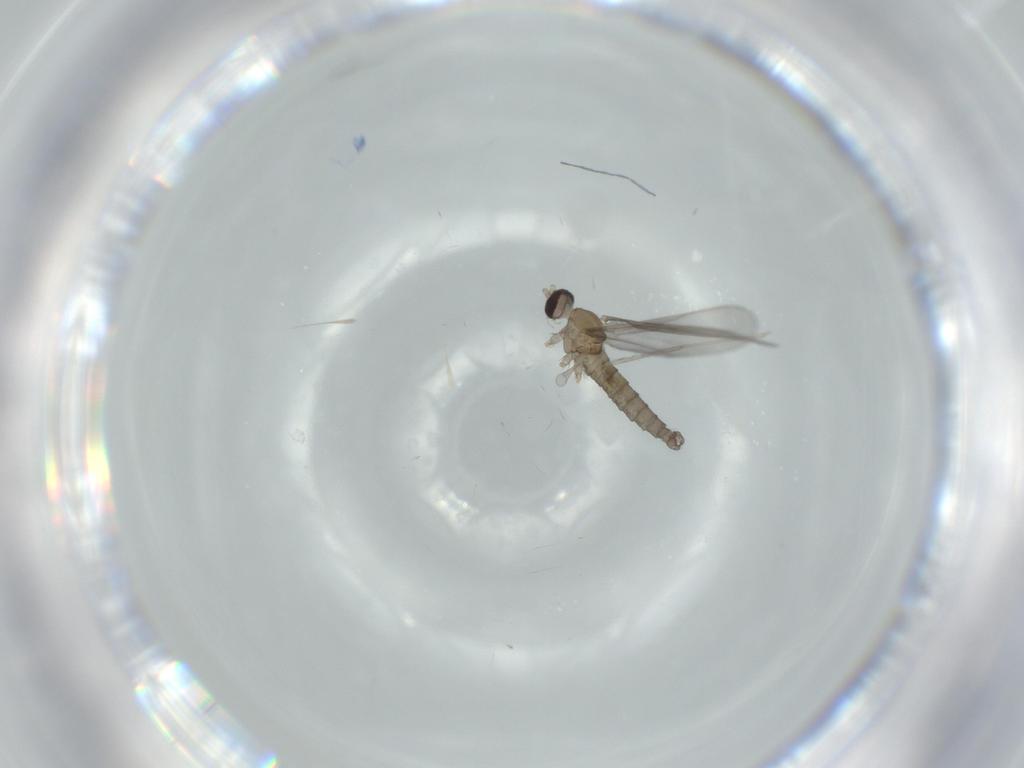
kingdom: Animalia
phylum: Arthropoda
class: Insecta
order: Diptera
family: Cecidomyiidae
